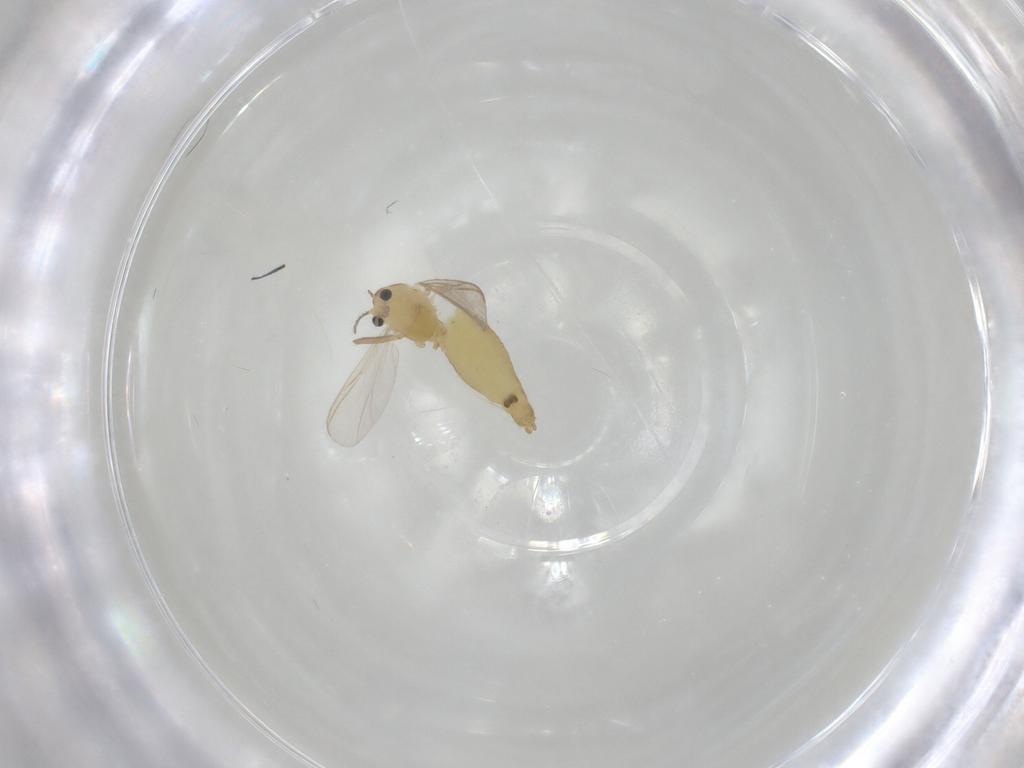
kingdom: Animalia
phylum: Arthropoda
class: Insecta
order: Diptera
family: Chironomidae
